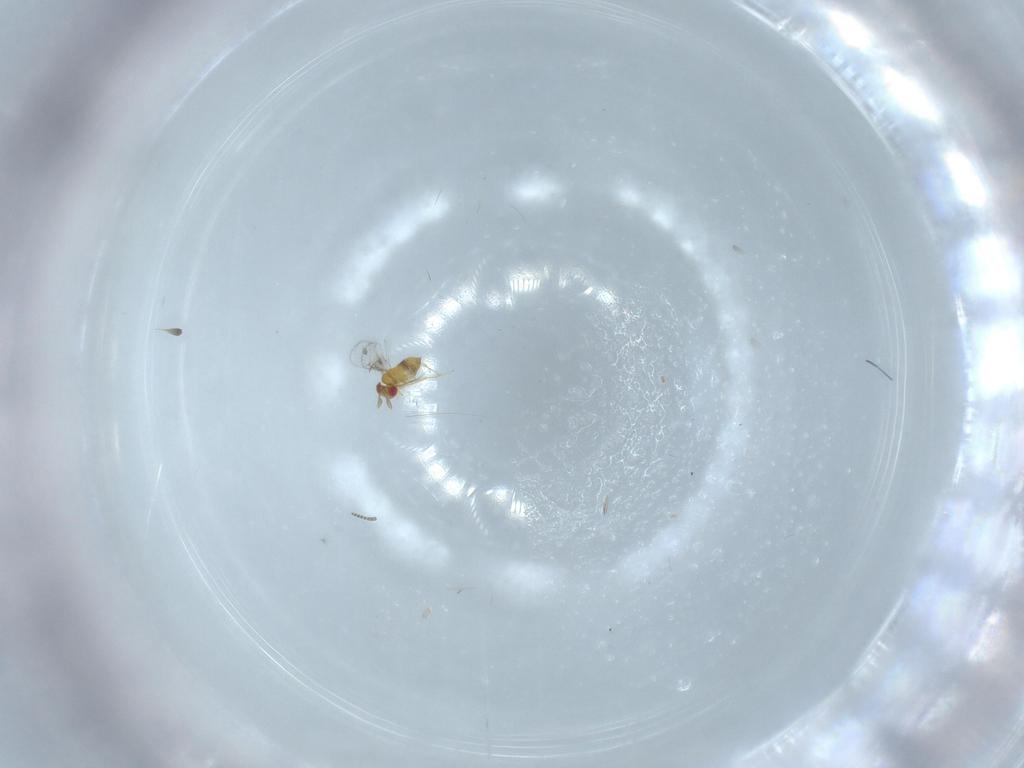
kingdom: Animalia
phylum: Arthropoda
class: Insecta
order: Hymenoptera
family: Trichogrammatidae
